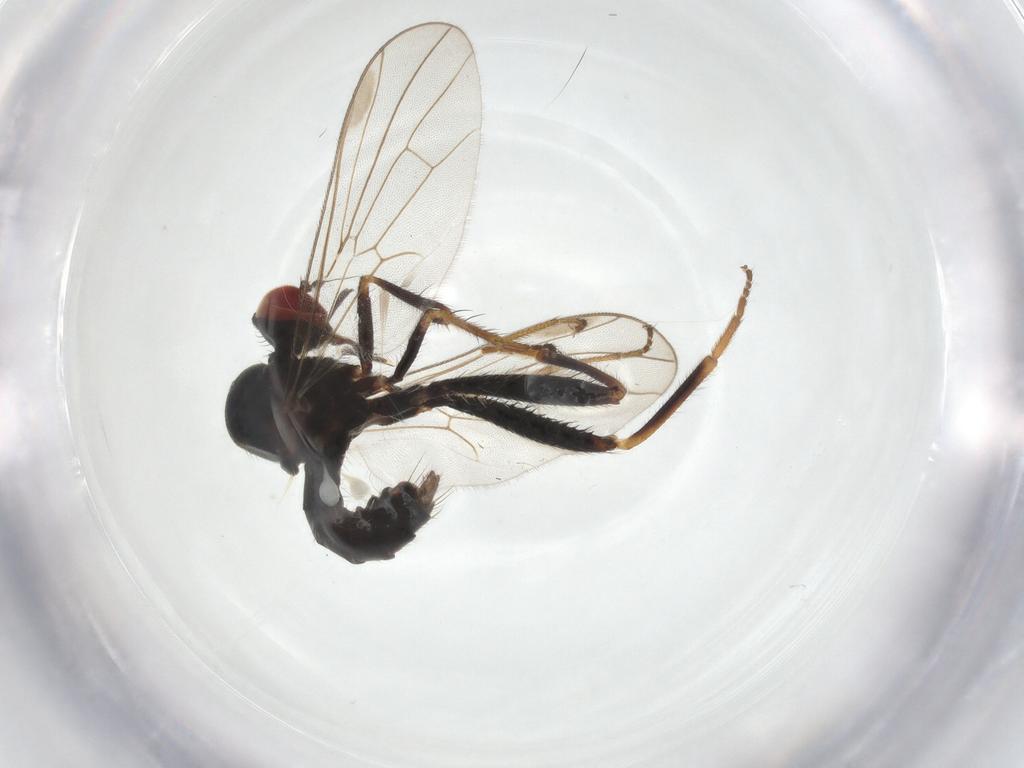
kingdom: Animalia
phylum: Arthropoda
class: Insecta
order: Diptera
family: Hybotidae
